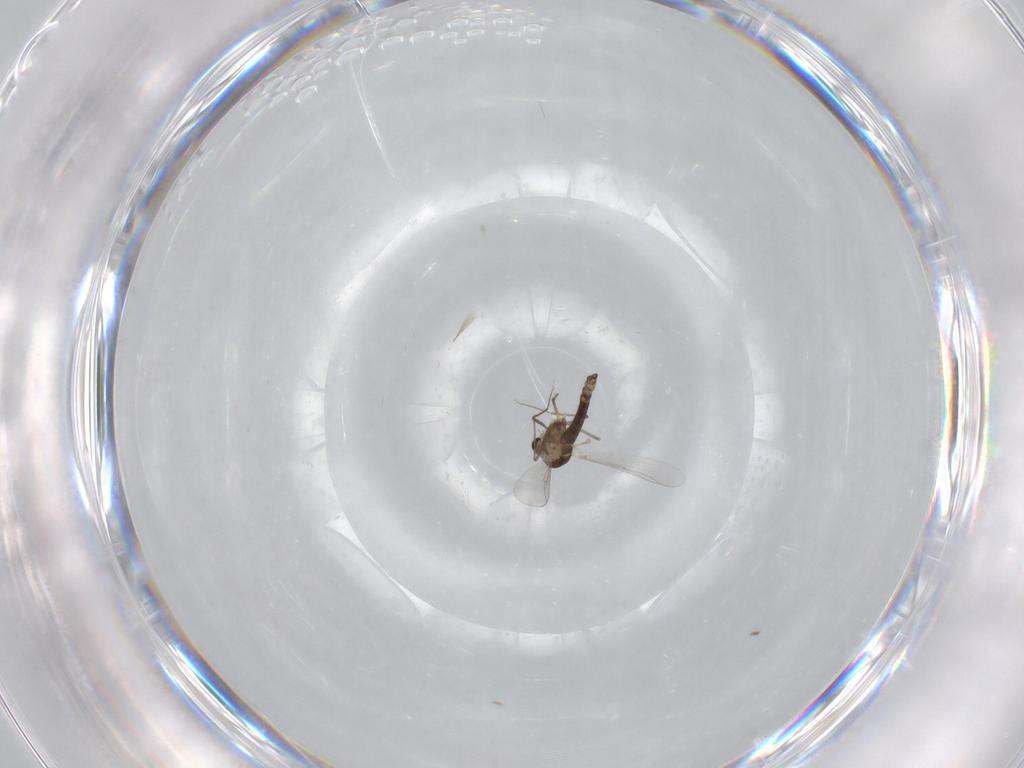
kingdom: Animalia
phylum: Arthropoda
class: Insecta
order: Diptera
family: Chironomidae
